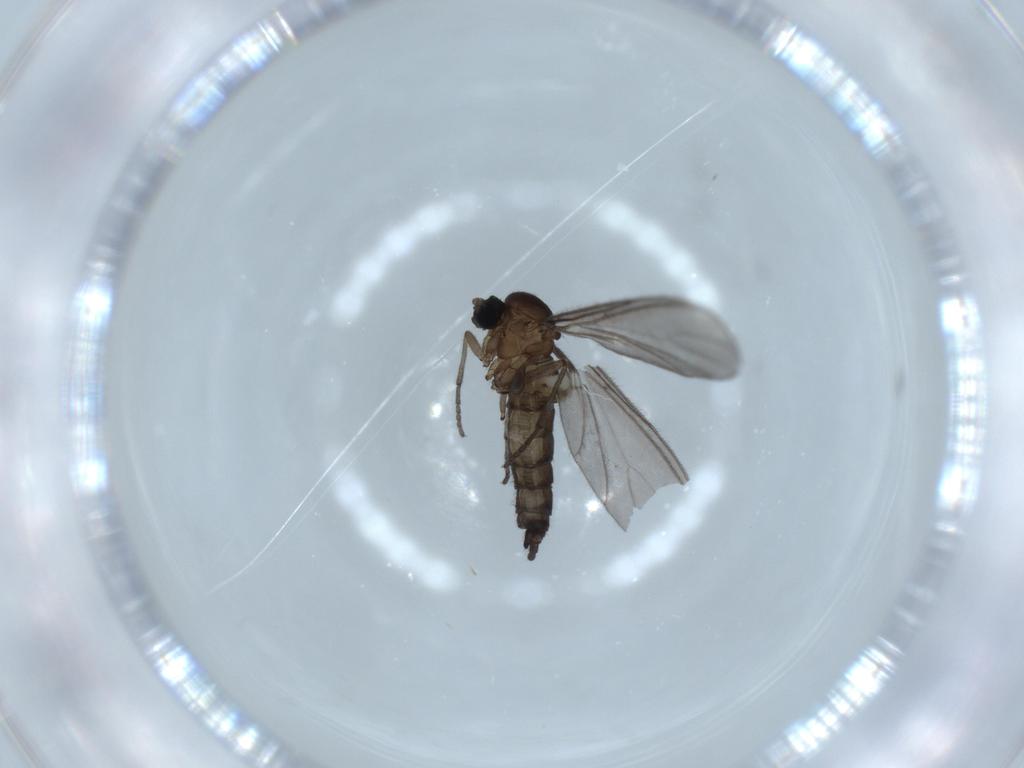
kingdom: Animalia
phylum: Arthropoda
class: Insecta
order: Diptera
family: Sciaridae
